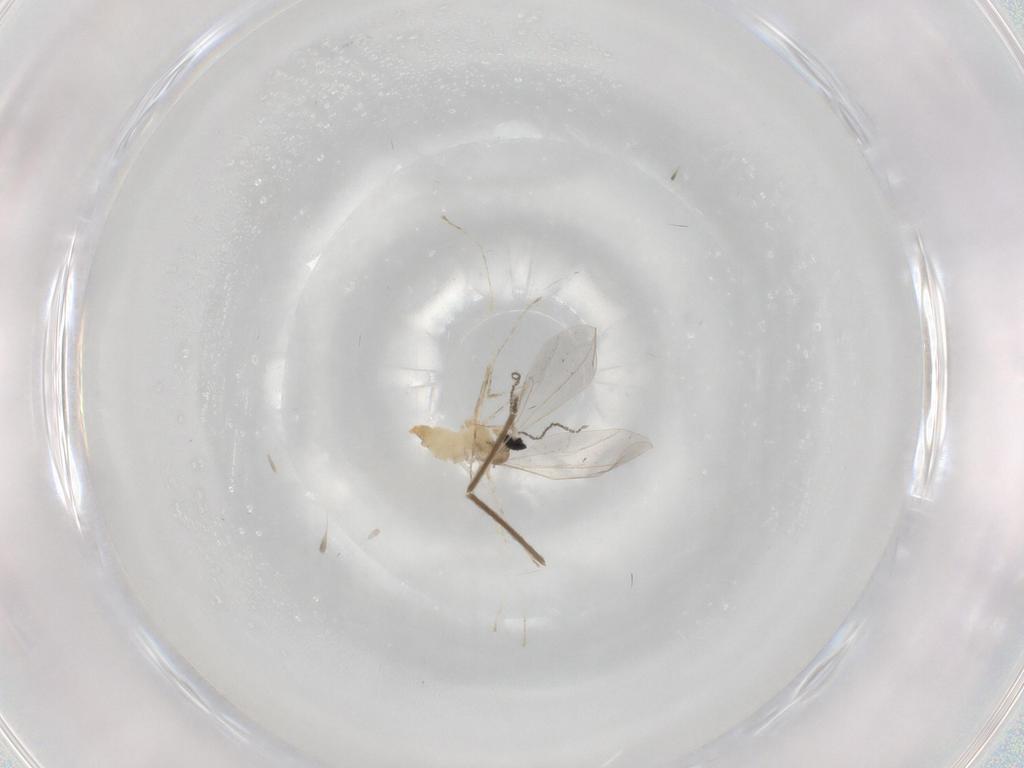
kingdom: Animalia
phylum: Arthropoda
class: Insecta
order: Diptera
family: Chironomidae
